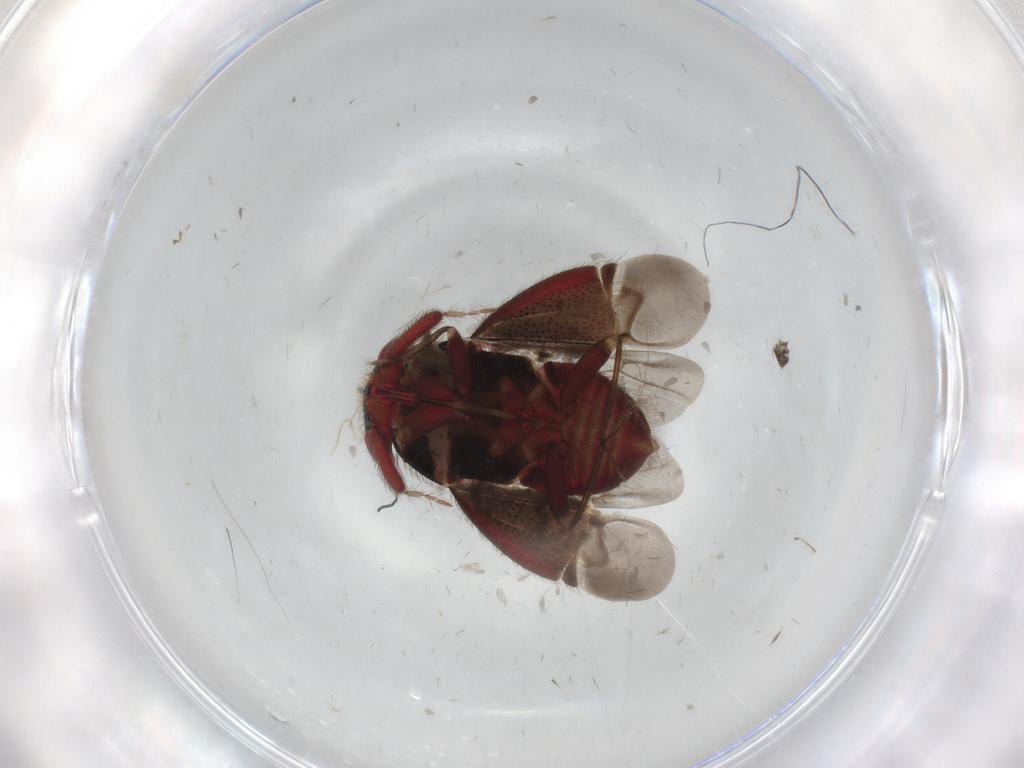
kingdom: Animalia
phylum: Arthropoda
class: Insecta
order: Hemiptera
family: Miridae
